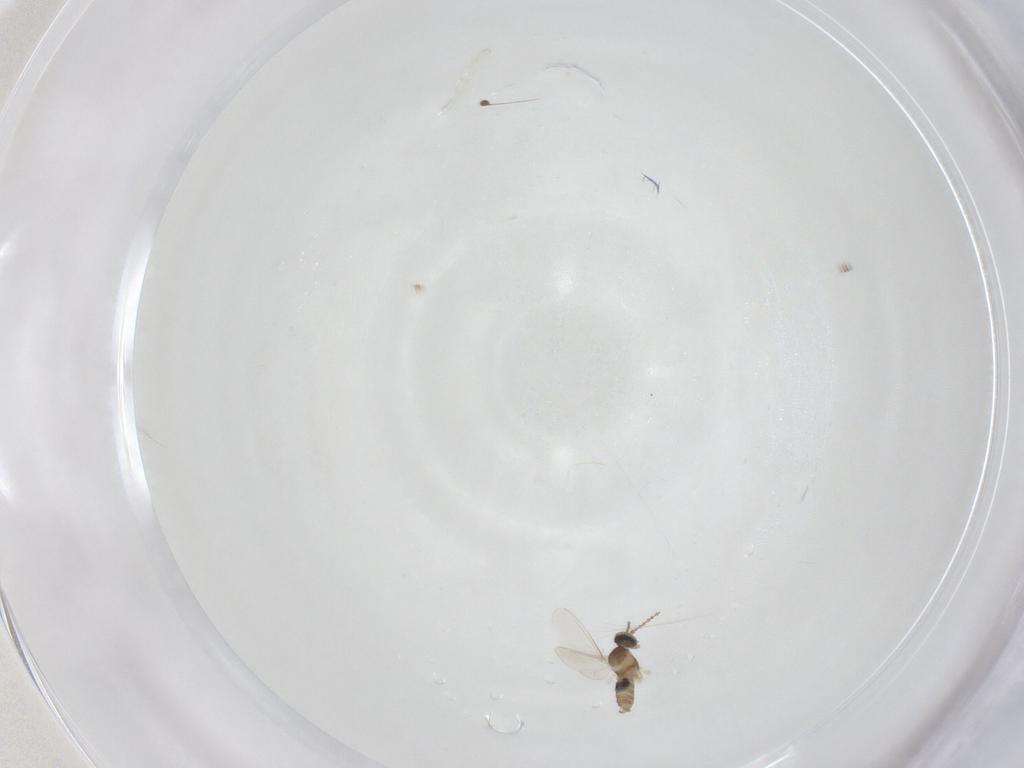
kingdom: Animalia
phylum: Arthropoda
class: Insecta
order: Diptera
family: Hybotidae
